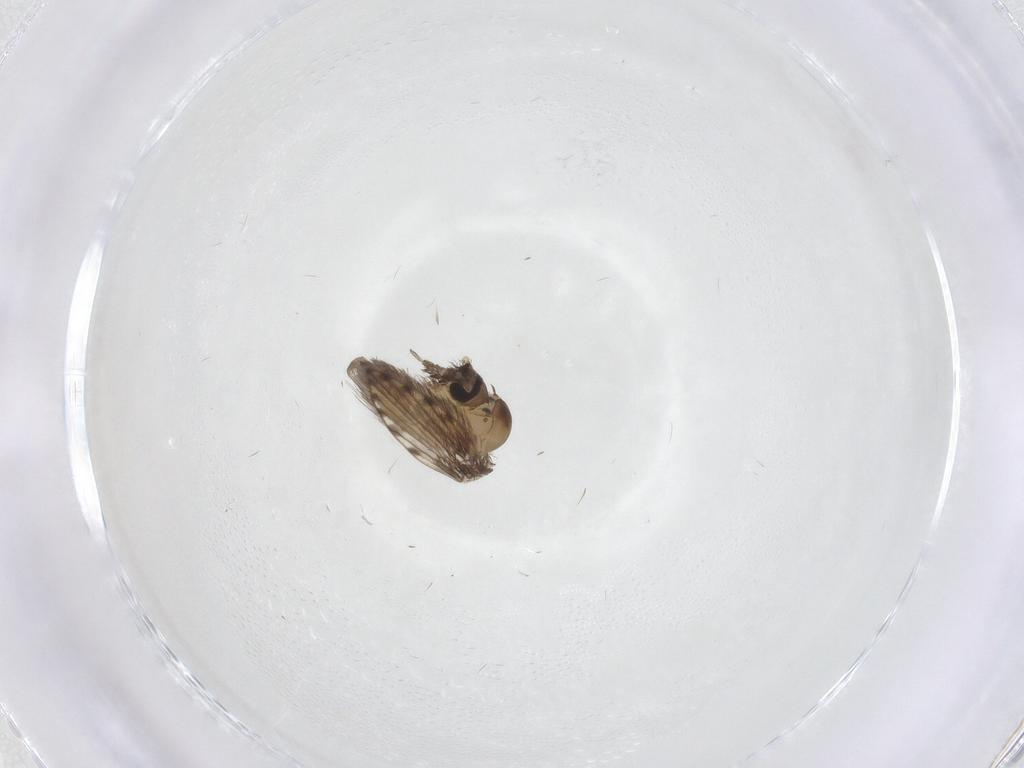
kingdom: Animalia
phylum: Arthropoda
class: Insecta
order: Diptera
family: Psychodidae
